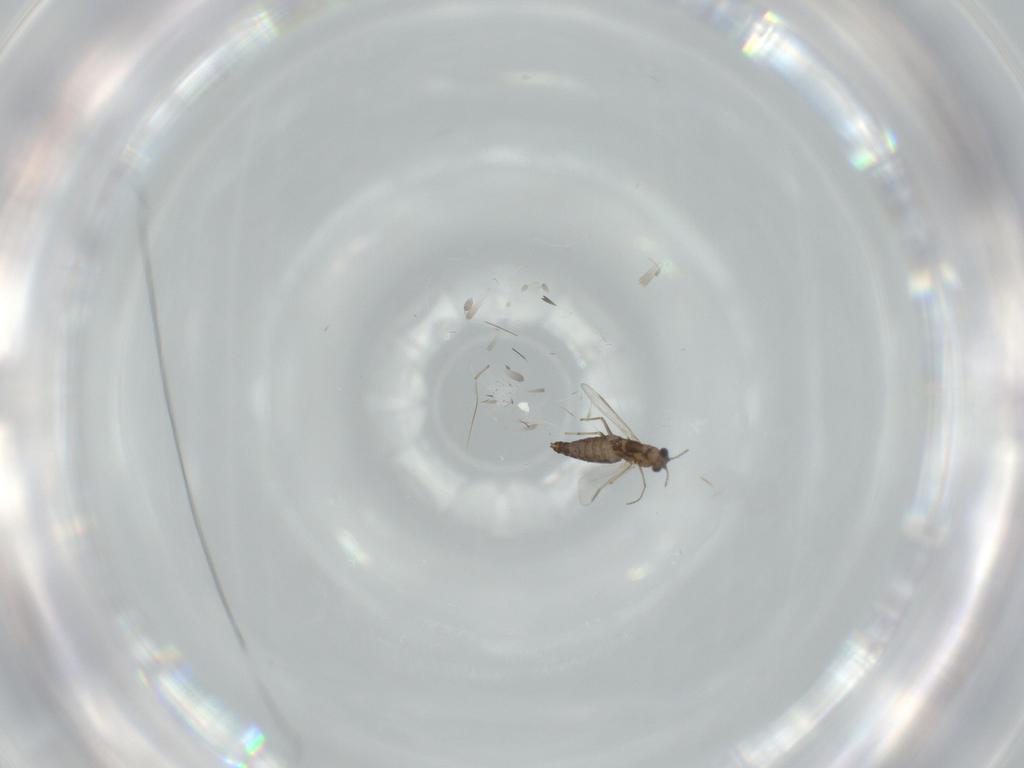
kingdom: Animalia
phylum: Arthropoda
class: Insecta
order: Diptera
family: Chironomidae
